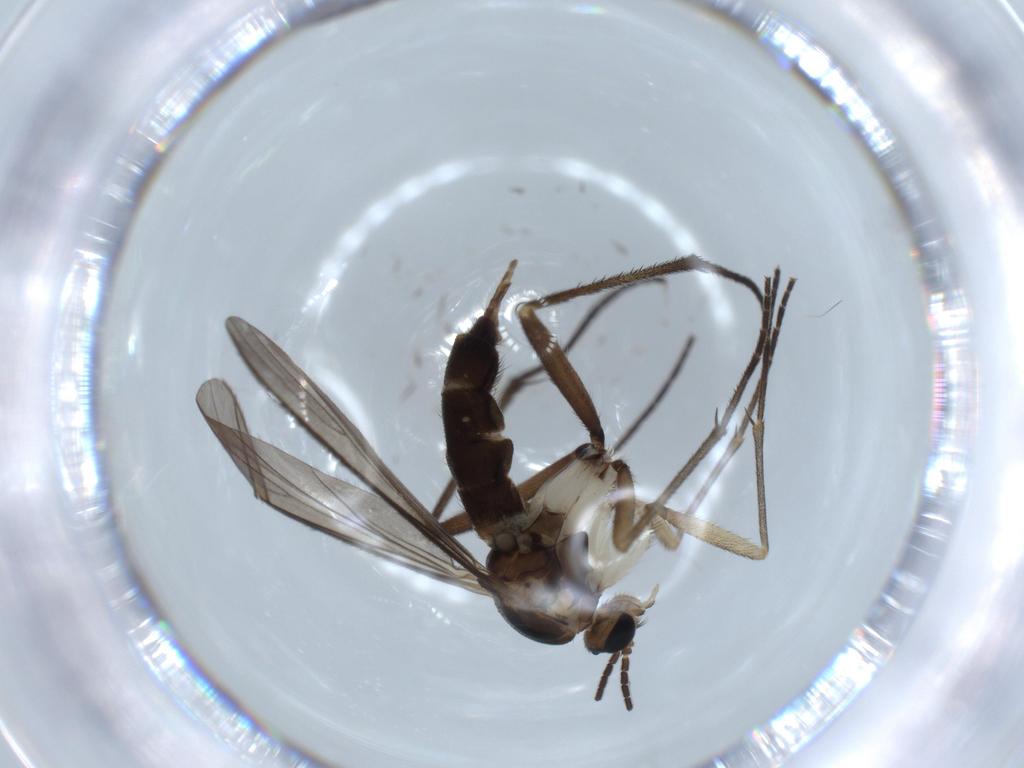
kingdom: Animalia
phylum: Arthropoda
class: Insecta
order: Diptera
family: Sciaridae
